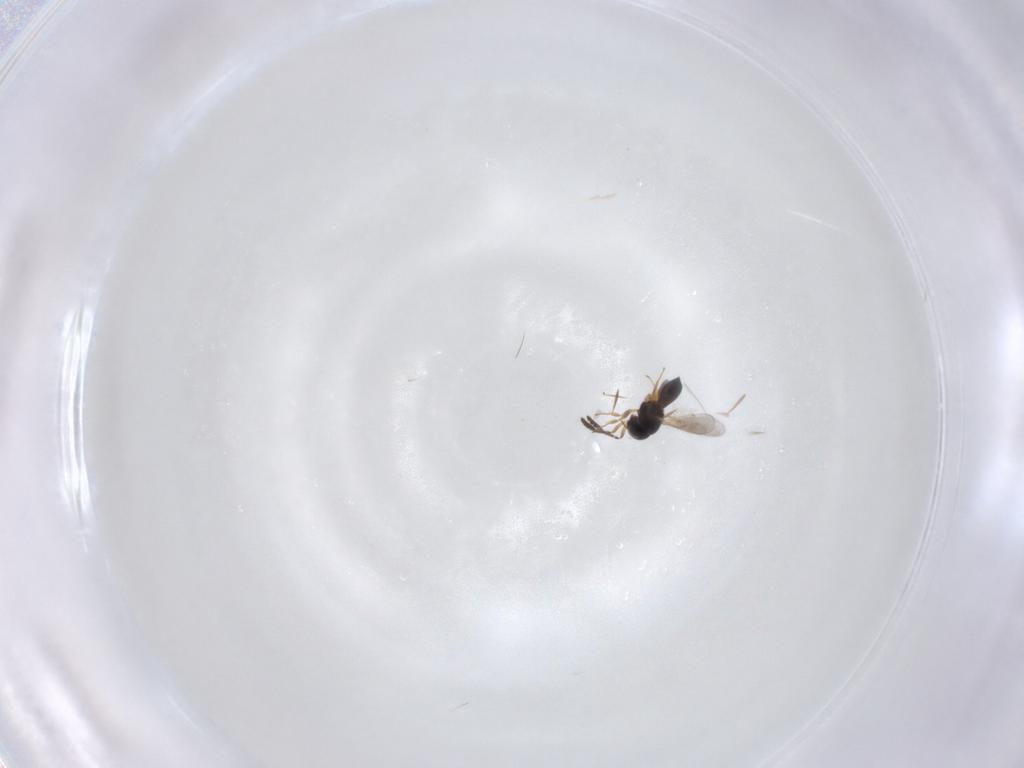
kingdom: Animalia
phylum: Arthropoda
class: Insecta
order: Hymenoptera
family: Scelionidae
